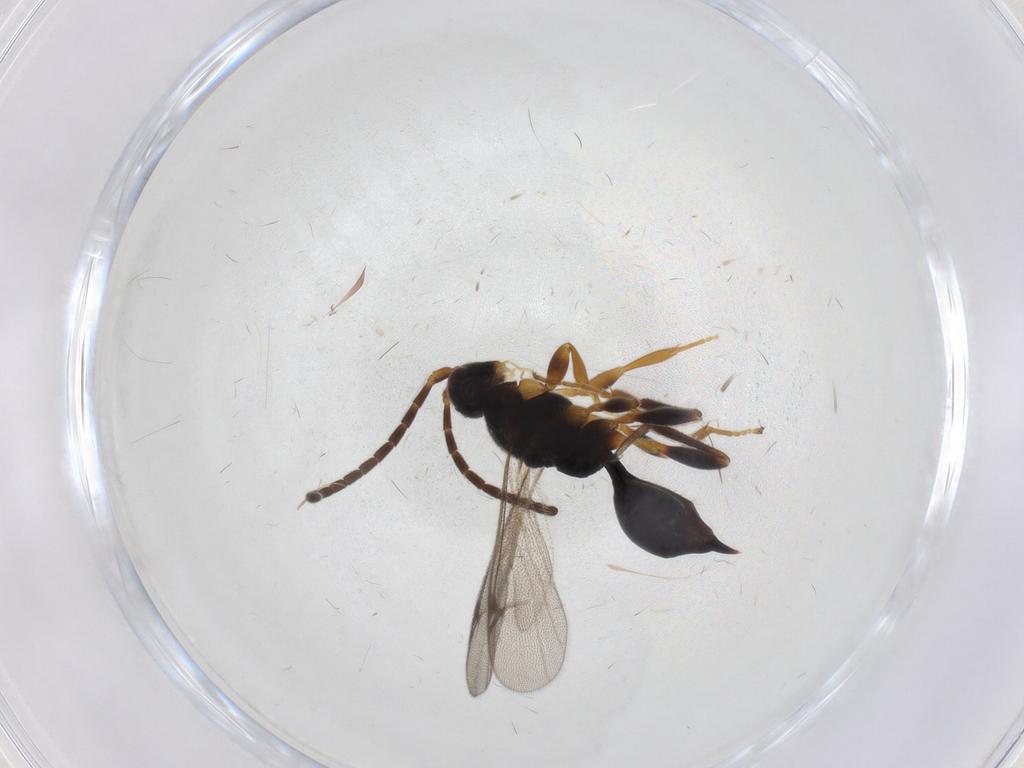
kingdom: Animalia
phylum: Arthropoda
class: Insecta
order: Hymenoptera
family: Proctotrupidae
